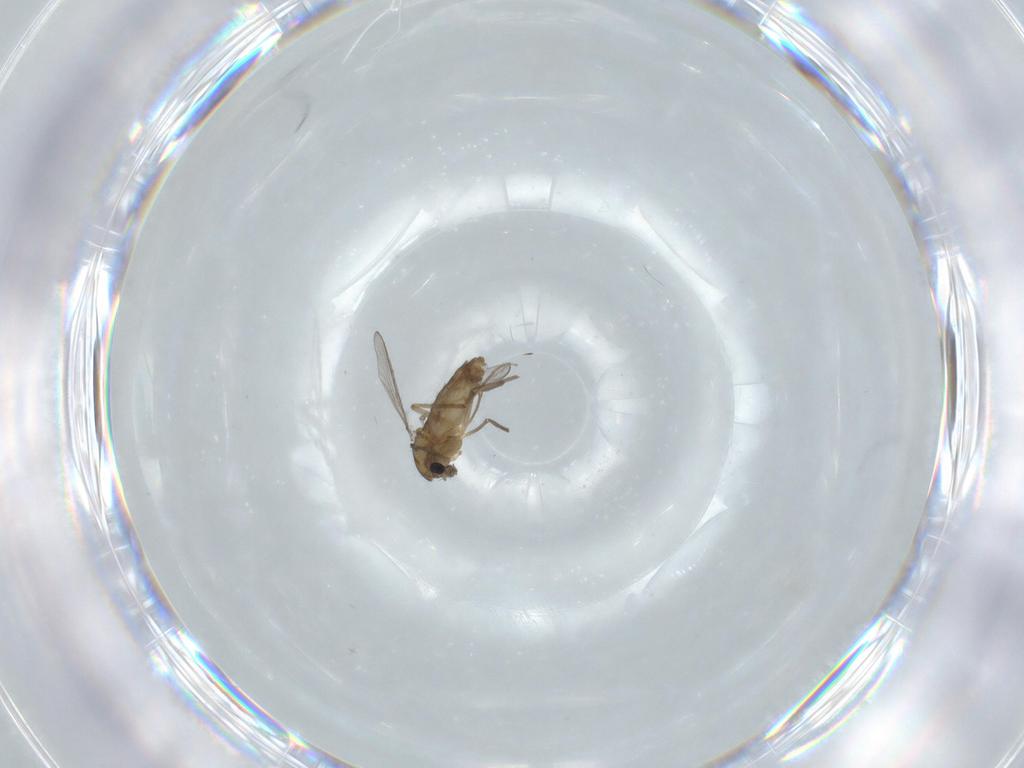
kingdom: Animalia
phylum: Arthropoda
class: Insecta
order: Diptera
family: Chironomidae
